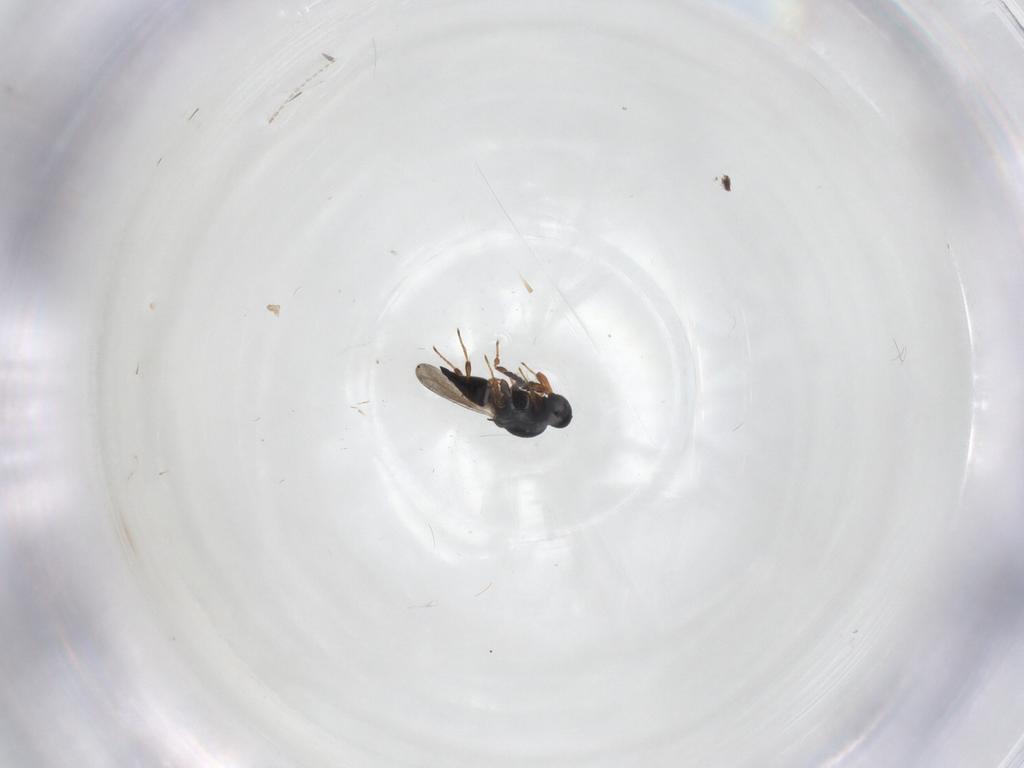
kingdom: Animalia
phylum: Arthropoda
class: Insecta
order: Hymenoptera
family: Platygastridae
